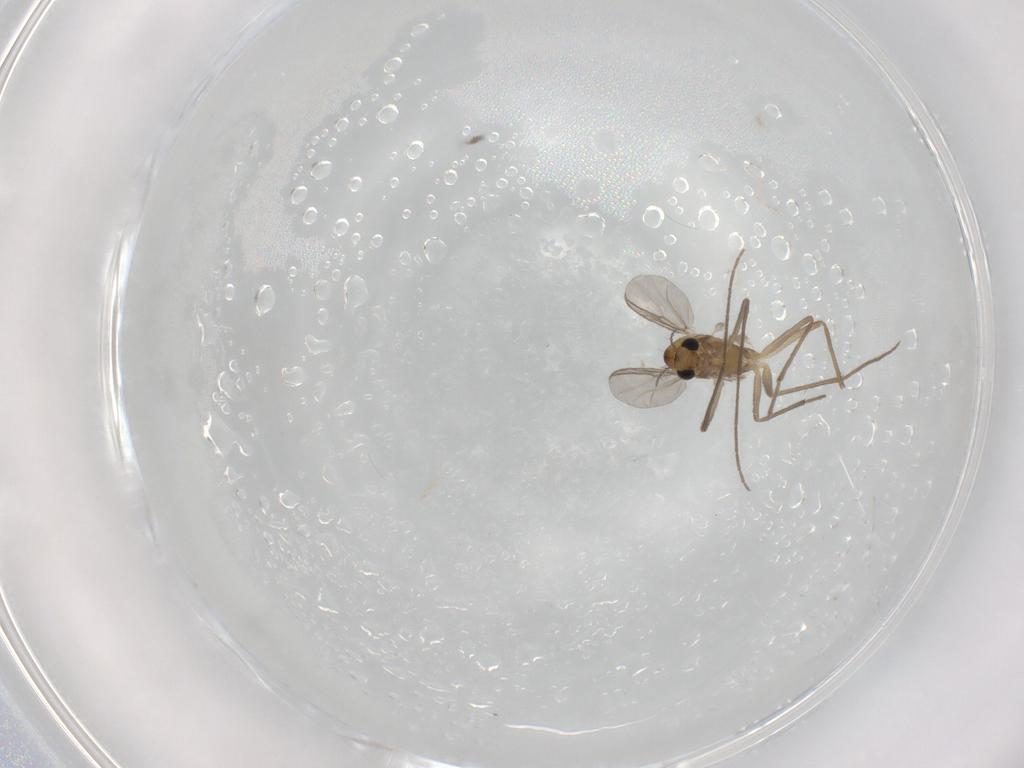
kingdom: Animalia
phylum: Arthropoda
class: Insecta
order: Diptera
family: Chironomidae
